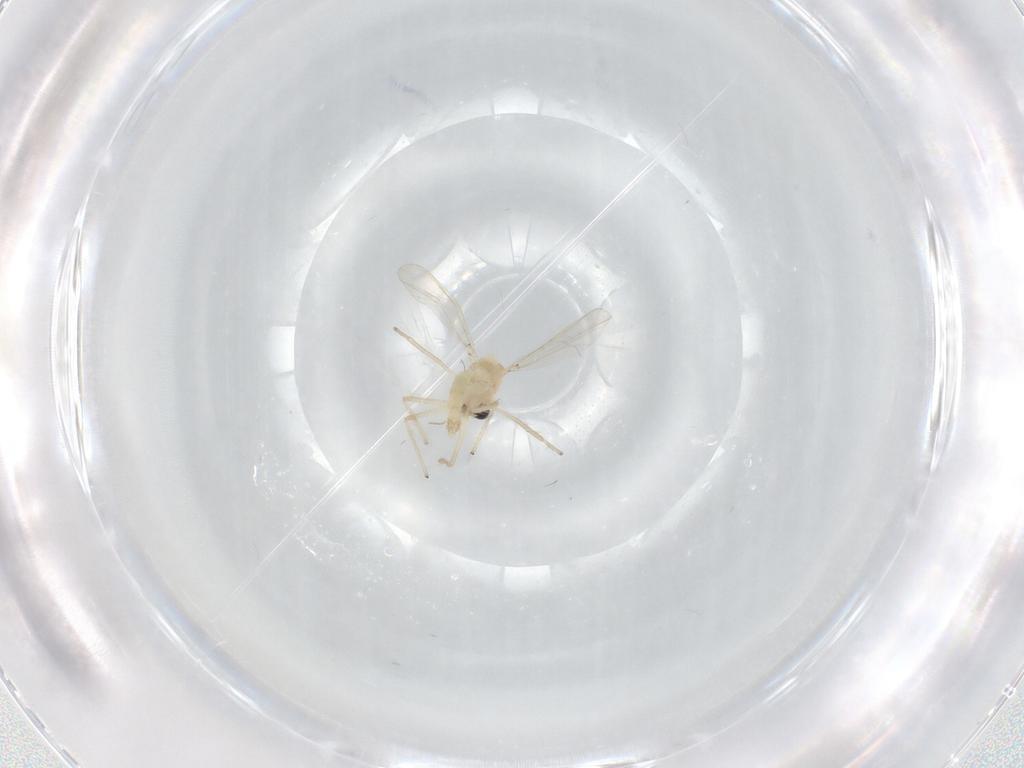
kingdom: Animalia
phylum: Arthropoda
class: Insecta
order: Diptera
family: Chironomidae
